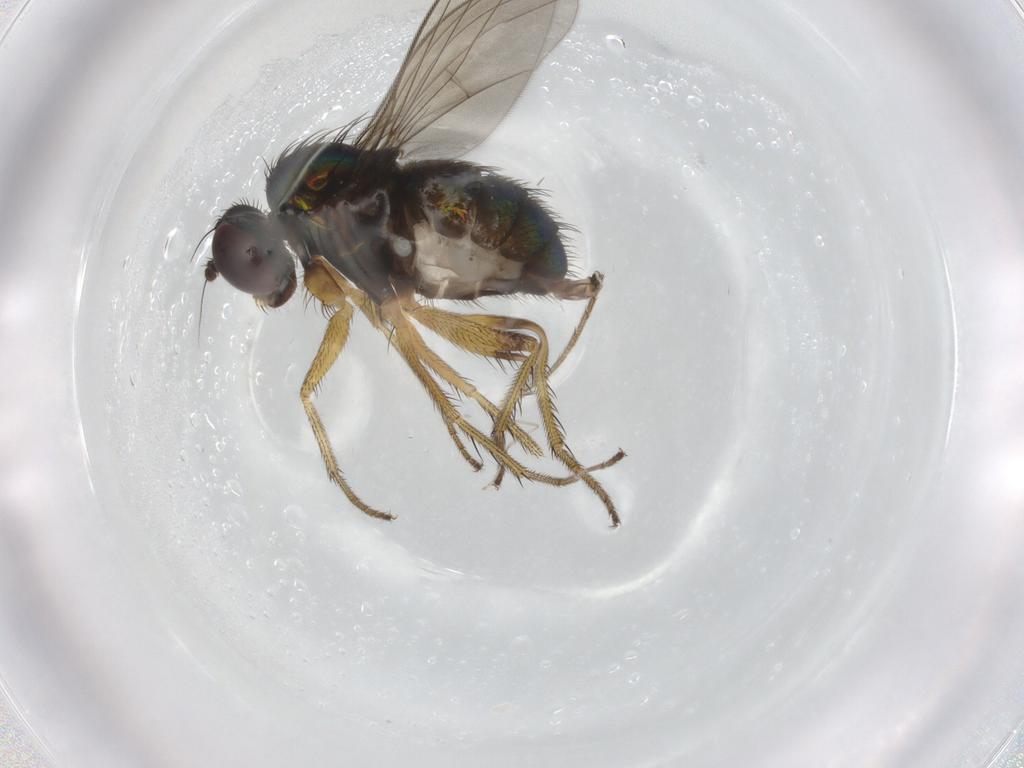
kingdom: Animalia
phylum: Arthropoda
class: Insecta
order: Diptera
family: Dolichopodidae
